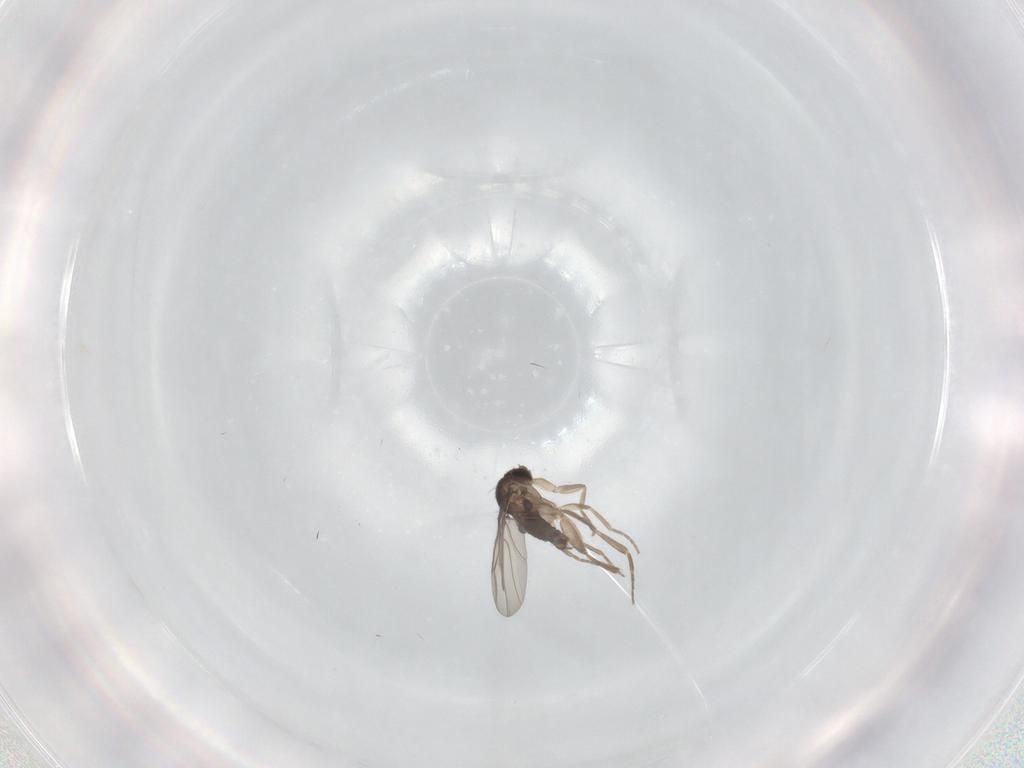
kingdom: Animalia
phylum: Arthropoda
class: Insecta
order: Diptera
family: Phoridae
